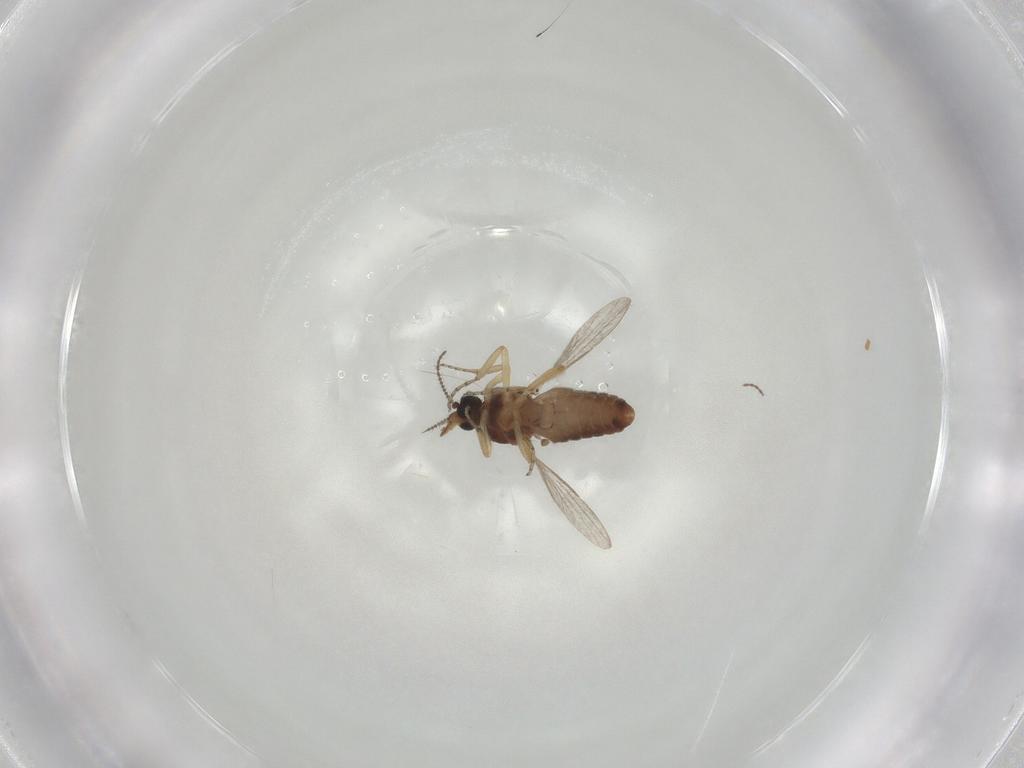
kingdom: Animalia
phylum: Arthropoda
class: Insecta
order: Diptera
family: Ceratopogonidae
